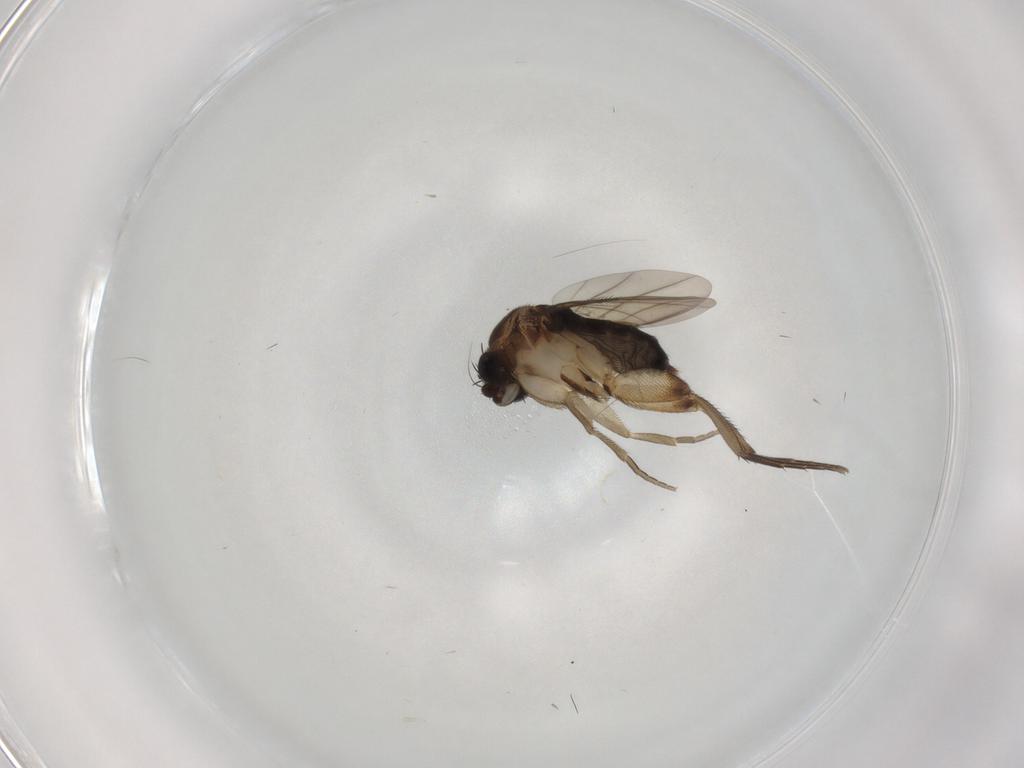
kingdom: Animalia
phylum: Arthropoda
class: Insecta
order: Diptera
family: Phoridae
